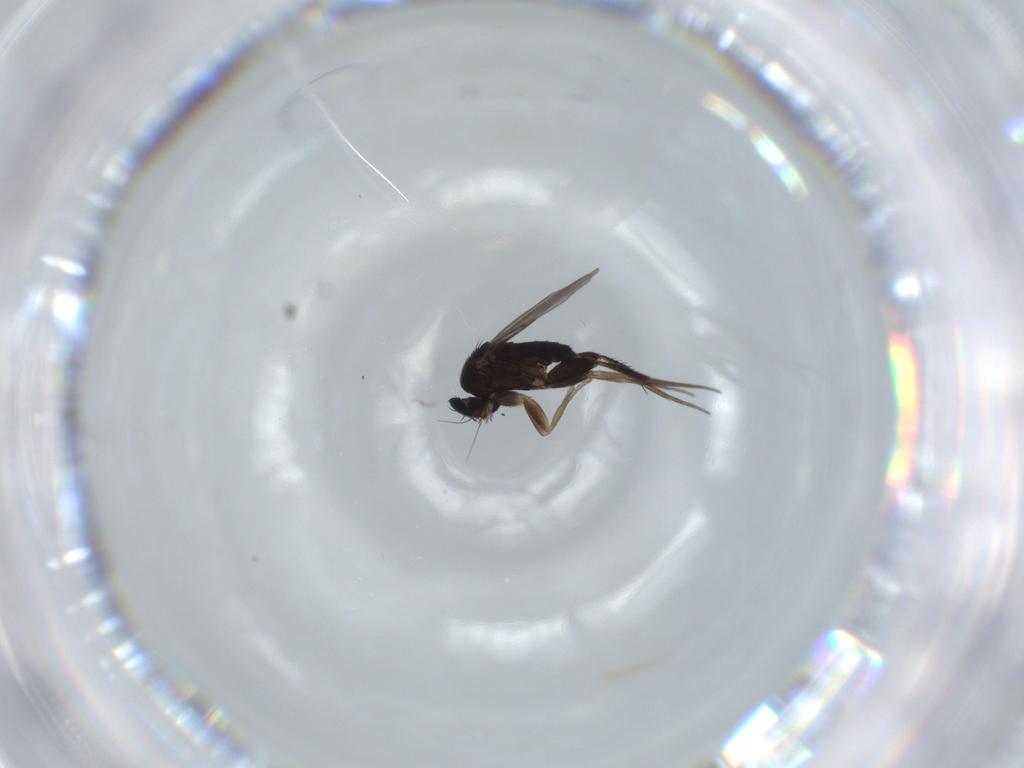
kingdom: Animalia
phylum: Arthropoda
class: Insecta
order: Diptera
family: Phoridae
